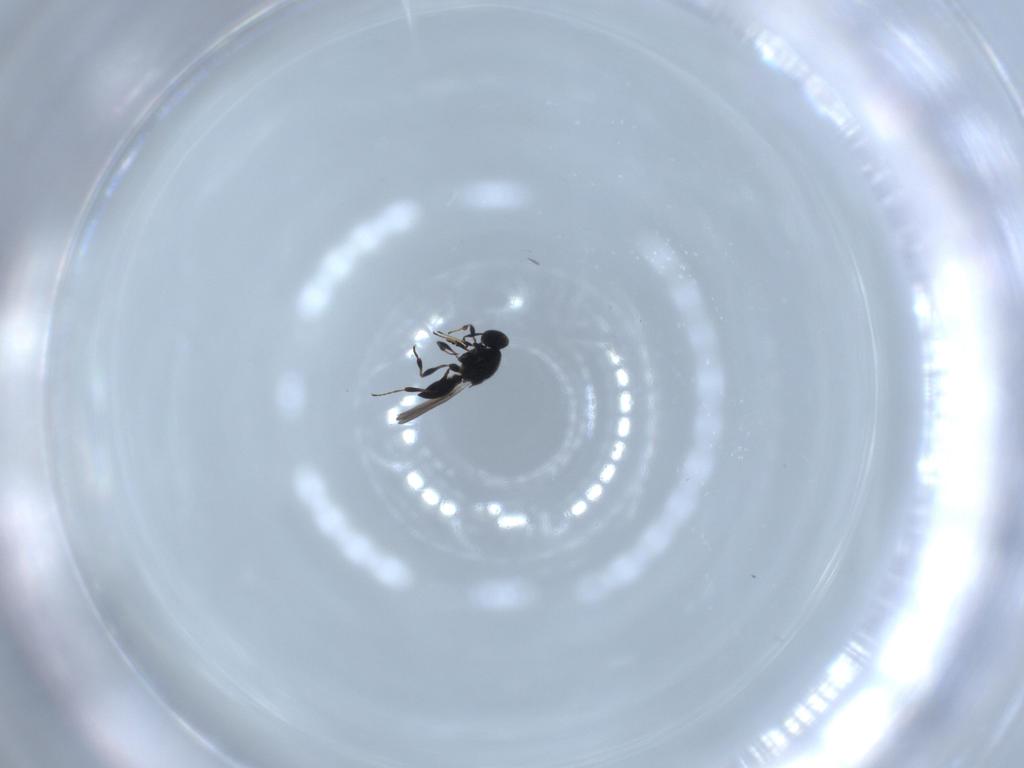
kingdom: Animalia
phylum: Arthropoda
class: Insecta
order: Hymenoptera
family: Platygastridae
